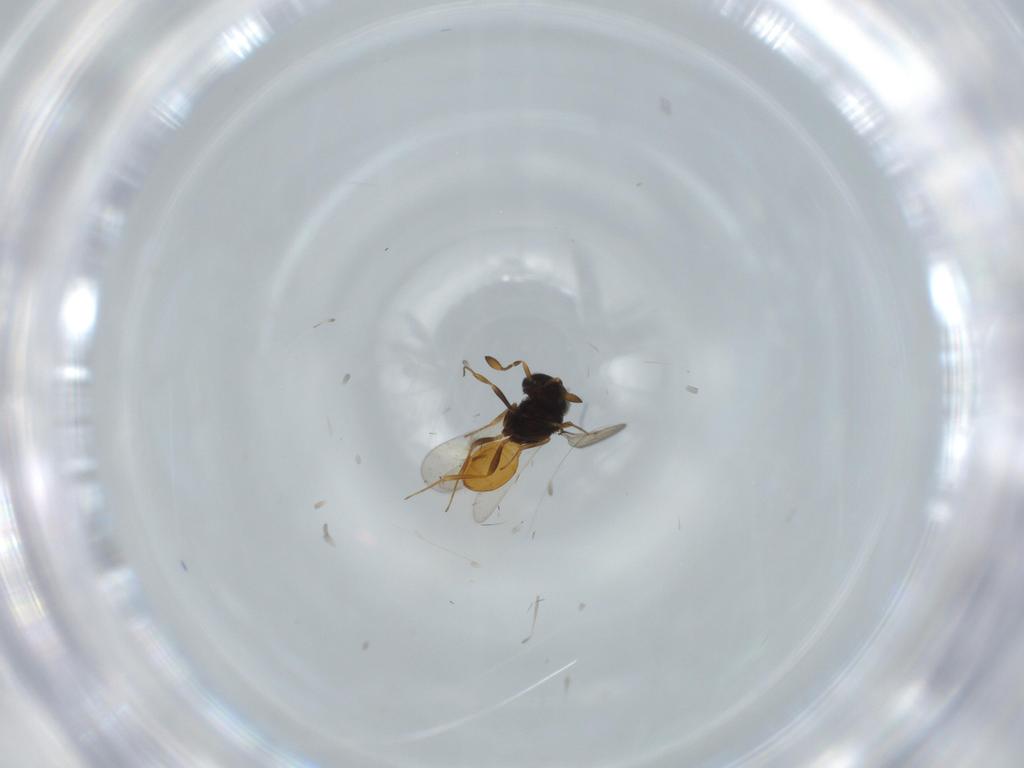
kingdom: Animalia
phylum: Arthropoda
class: Insecta
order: Hymenoptera
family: Scelionidae
